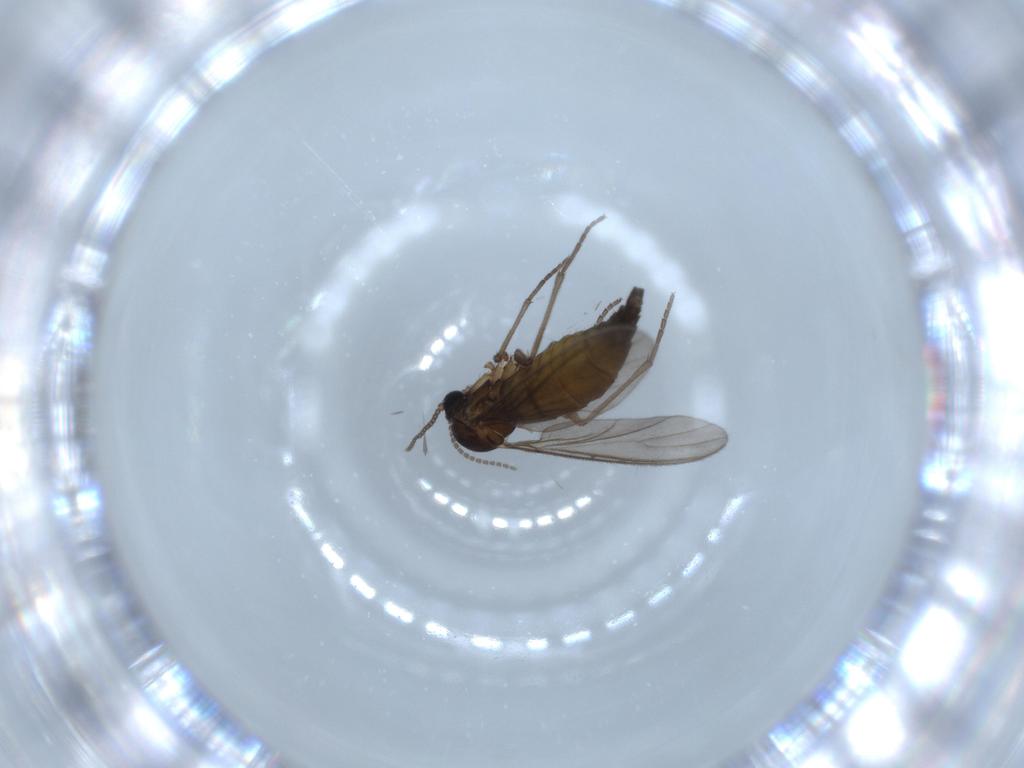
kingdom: Animalia
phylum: Arthropoda
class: Insecta
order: Diptera
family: Sciaridae
